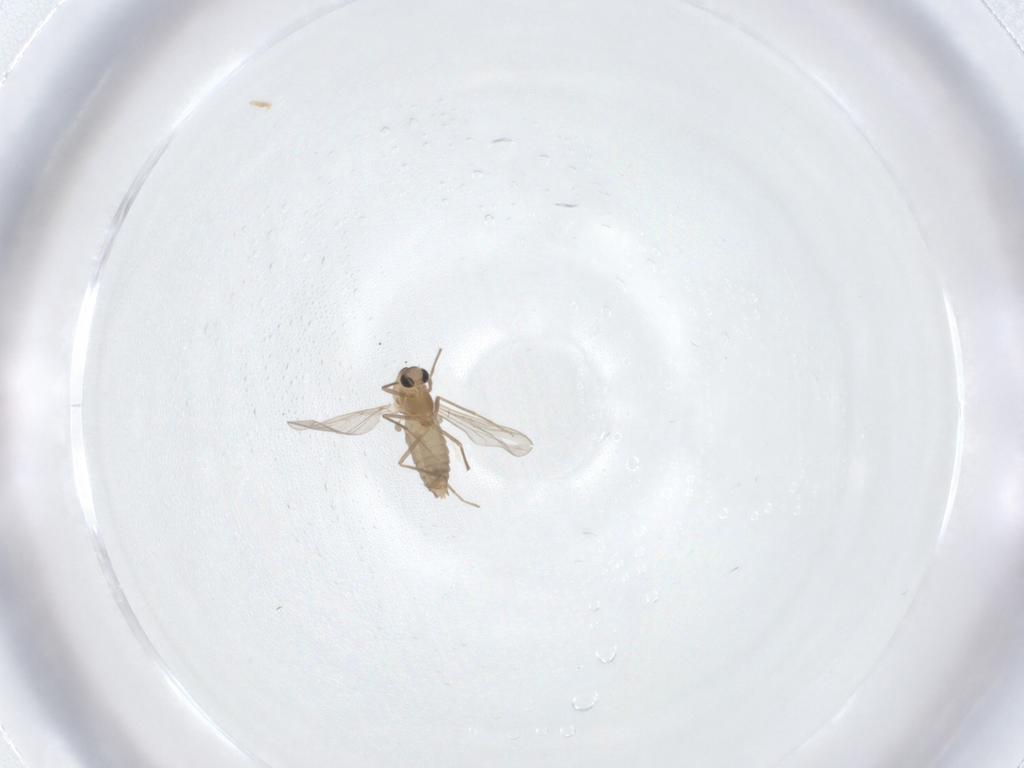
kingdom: Animalia
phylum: Arthropoda
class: Insecta
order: Diptera
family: Chironomidae
